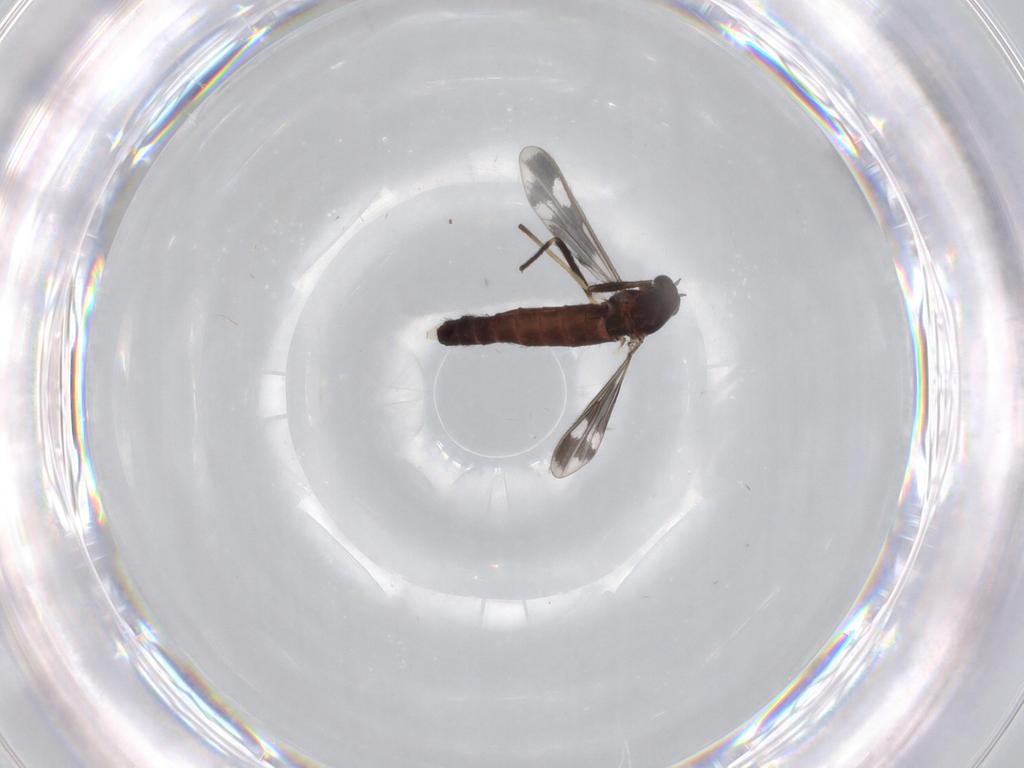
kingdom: Animalia
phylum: Arthropoda
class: Insecta
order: Diptera
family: Chironomidae
